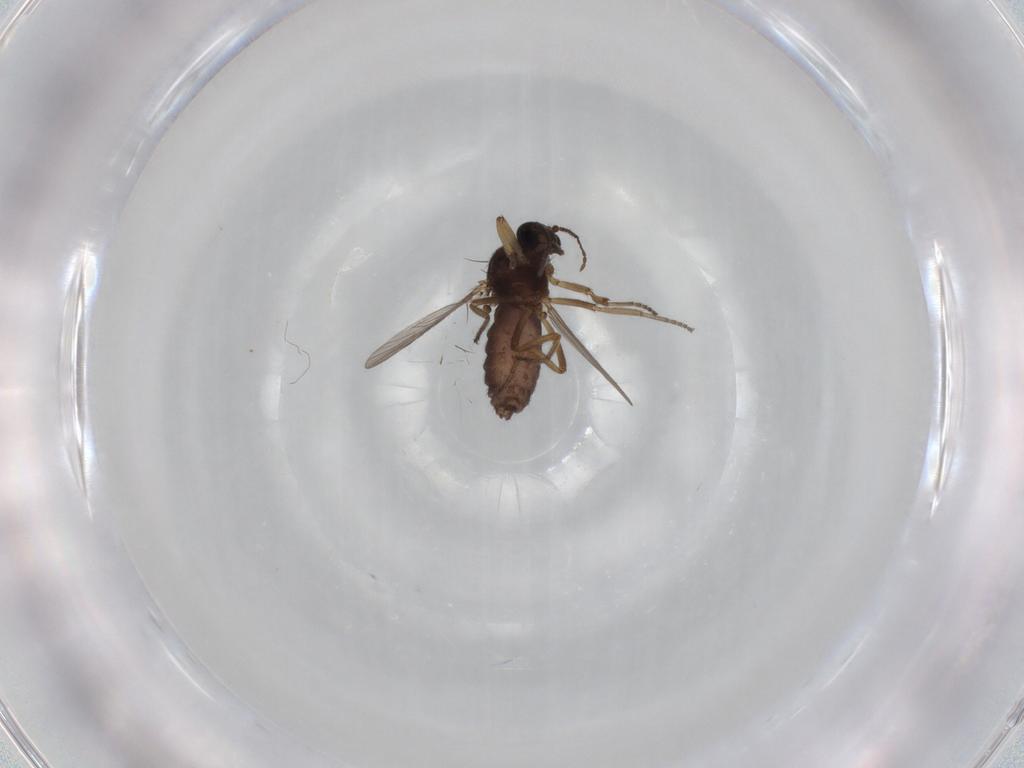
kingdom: Animalia
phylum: Arthropoda
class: Insecta
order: Diptera
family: Ceratopogonidae
